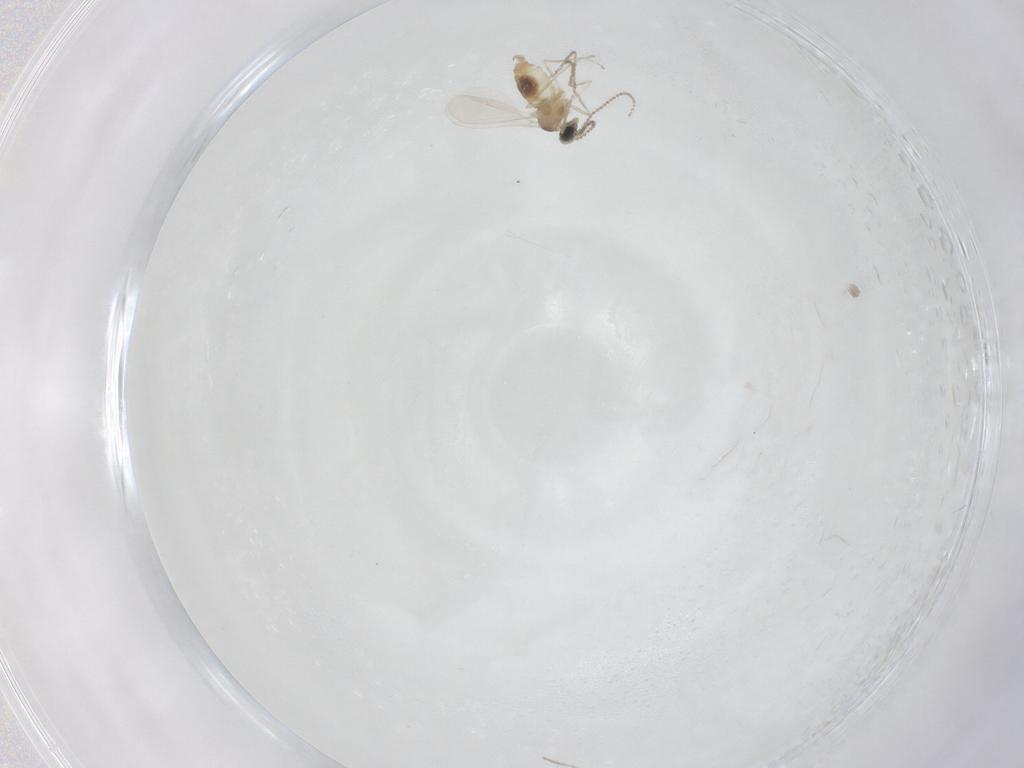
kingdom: Animalia
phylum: Arthropoda
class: Insecta
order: Diptera
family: Cecidomyiidae
